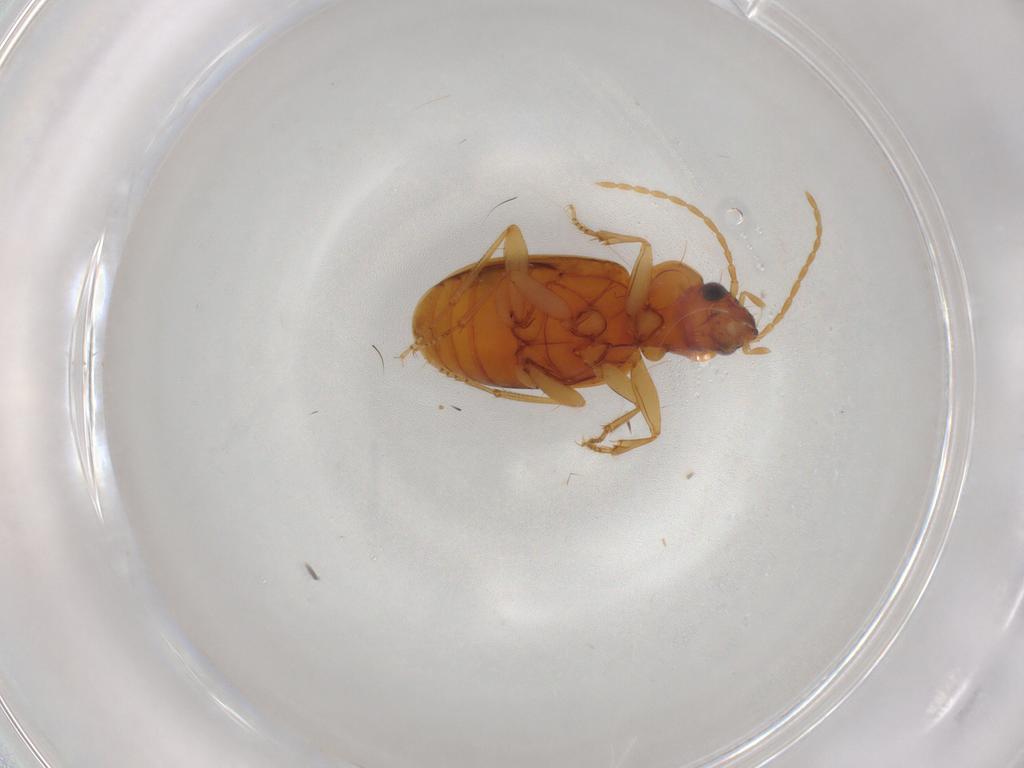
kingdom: Animalia
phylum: Arthropoda
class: Insecta
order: Coleoptera
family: Carabidae
